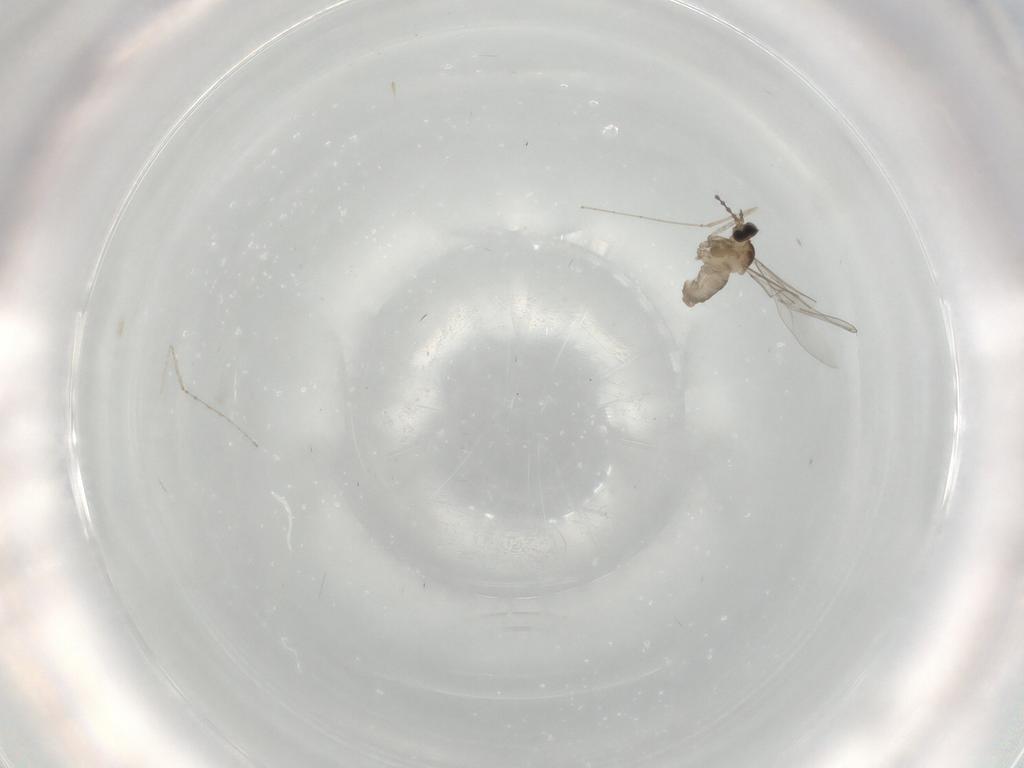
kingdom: Animalia
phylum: Arthropoda
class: Insecta
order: Diptera
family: Cecidomyiidae
